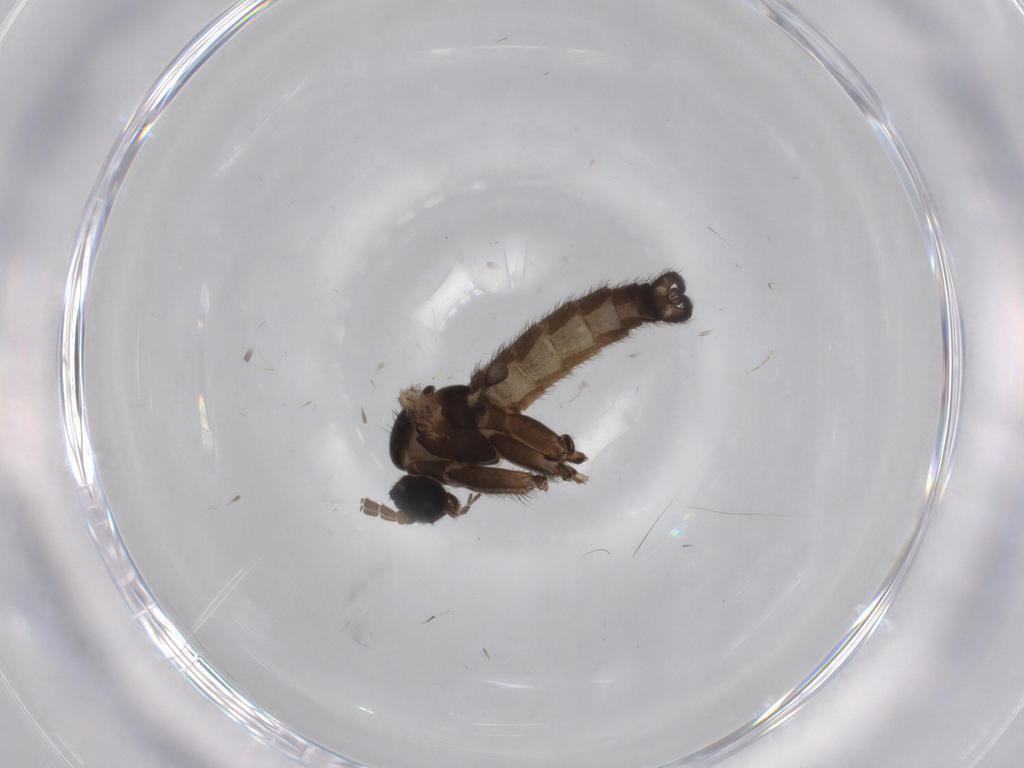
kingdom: Animalia
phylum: Arthropoda
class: Insecta
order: Diptera
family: Sciaridae
